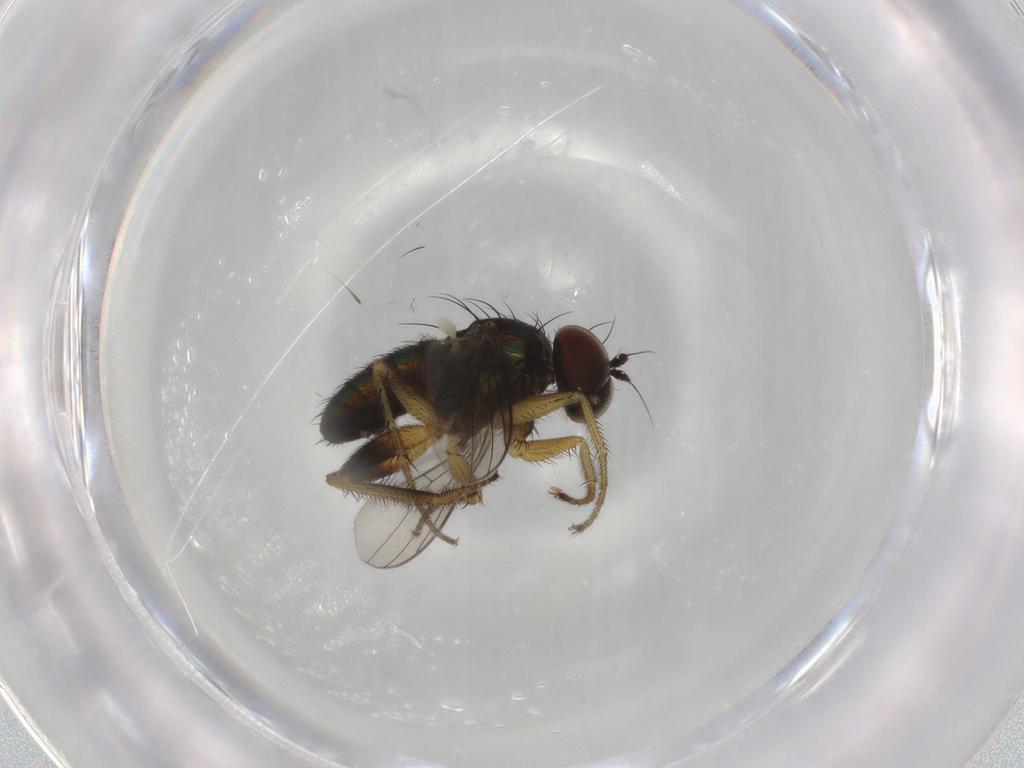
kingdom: Animalia
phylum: Arthropoda
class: Insecta
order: Diptera
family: Dolichopodidae
